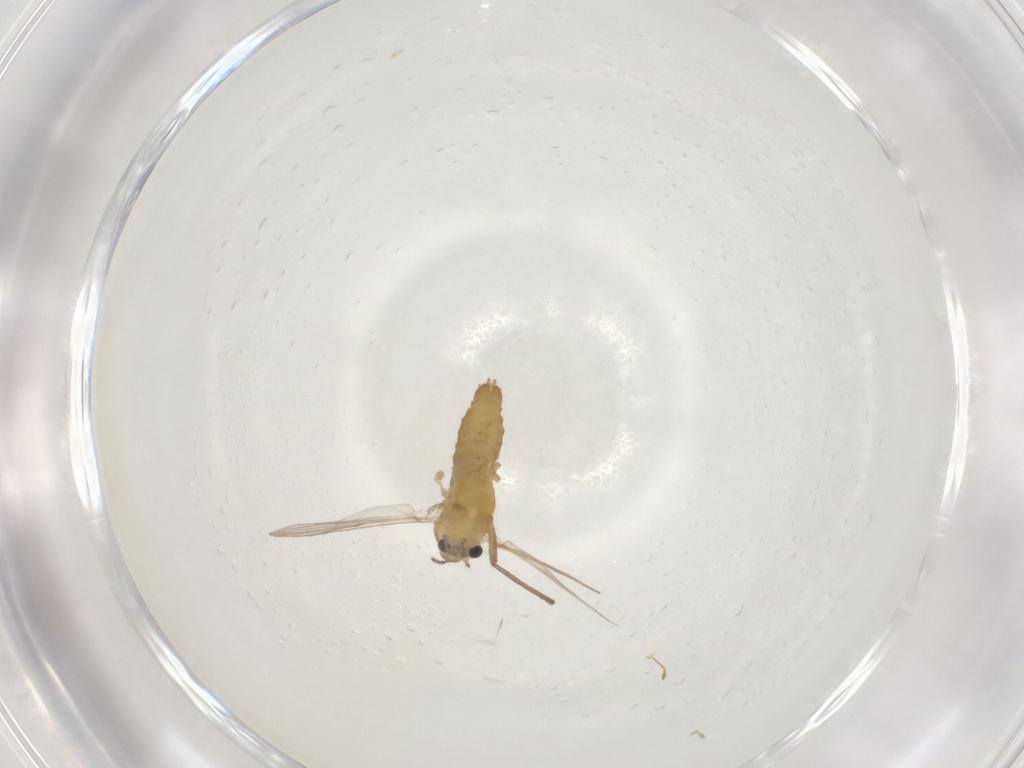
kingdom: Animalia
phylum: Arthropoda
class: Insecta
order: Diptera
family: Chironomidae
